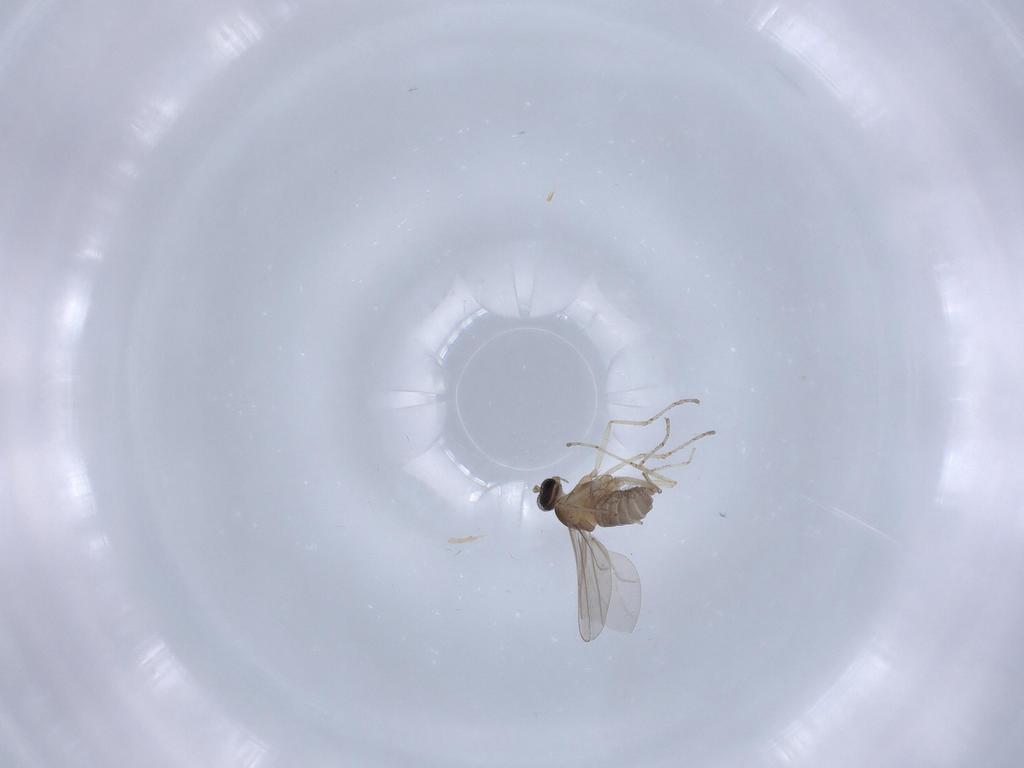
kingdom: Animalia
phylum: Arthropoda
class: Insecta
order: Diptera
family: Cecidomyiidae
